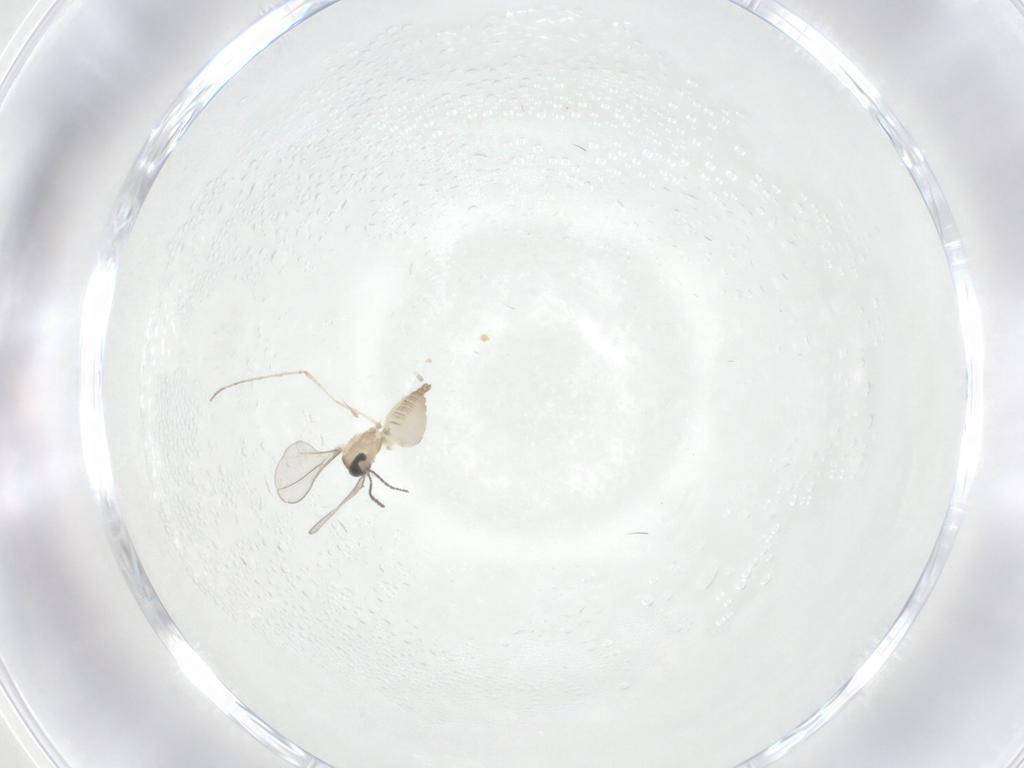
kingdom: Animalia
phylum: Arthropoda
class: Insecta
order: Diptera
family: Cecidomyiidae
